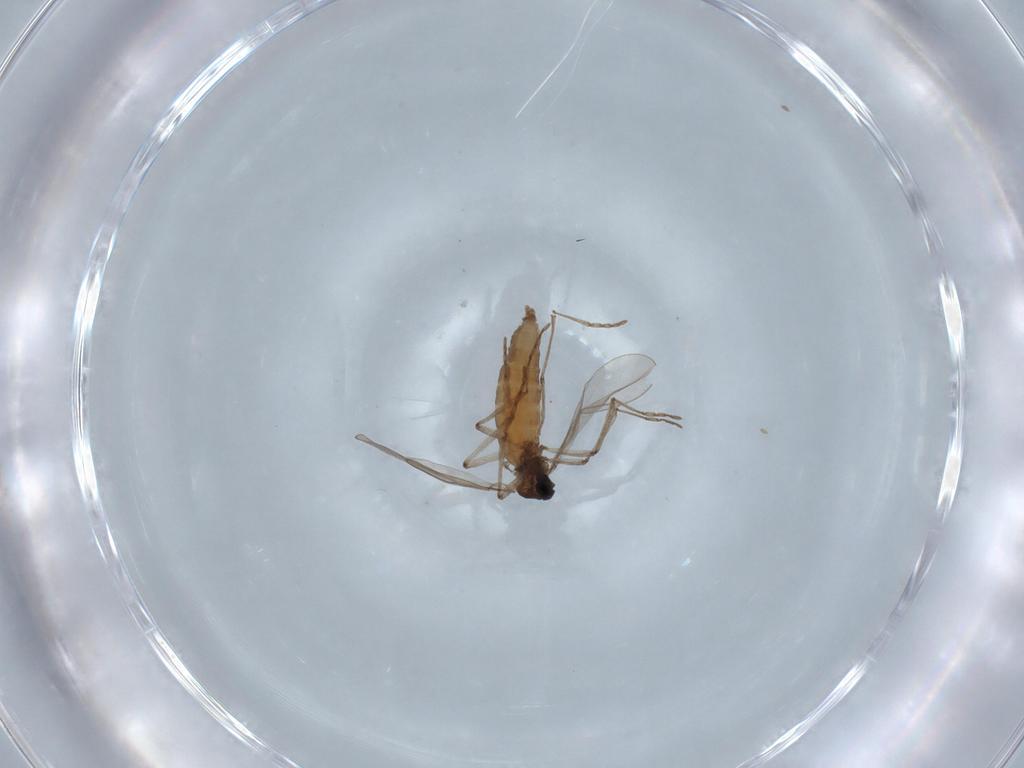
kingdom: Animalia
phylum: Arthropoda
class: Insecta
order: Diptera
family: Cecidomyiidae
